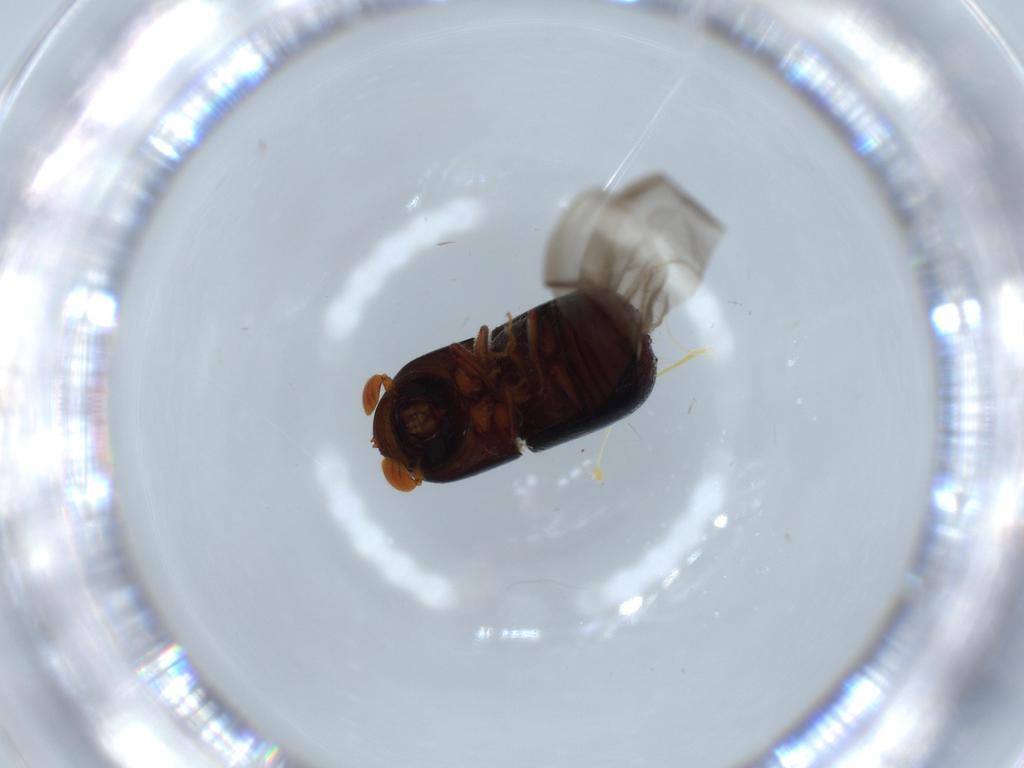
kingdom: Animalia
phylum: Arthropoda
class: Insecta
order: Coleoptera
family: Chrysomelidae
